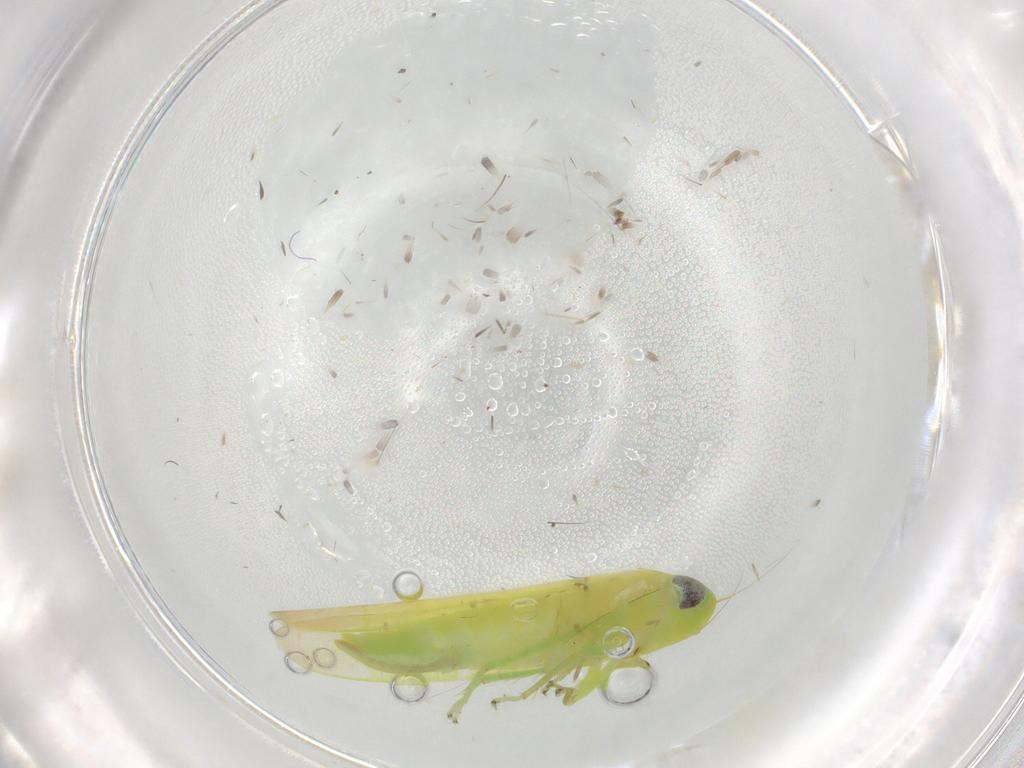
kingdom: Animalia
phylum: Arthropoda
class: Insecta
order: Hemiptera
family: Cicadellidae
